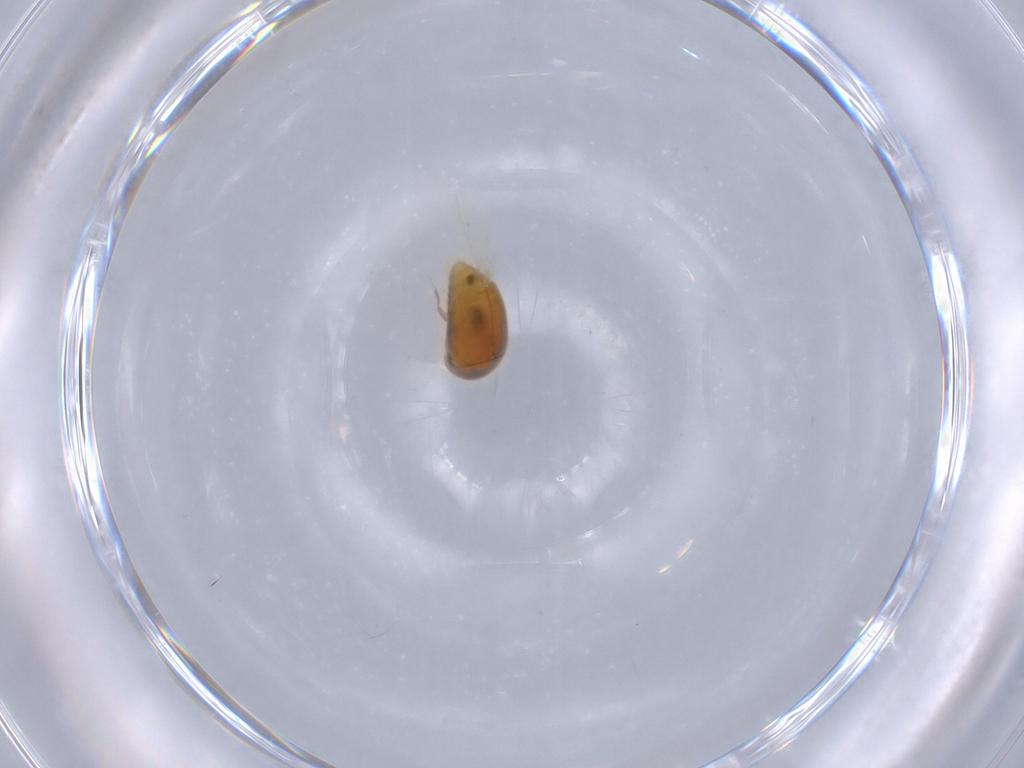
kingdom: Animalia
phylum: Arthropoda
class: Insecta
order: Coleoptera
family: Corylophidae
